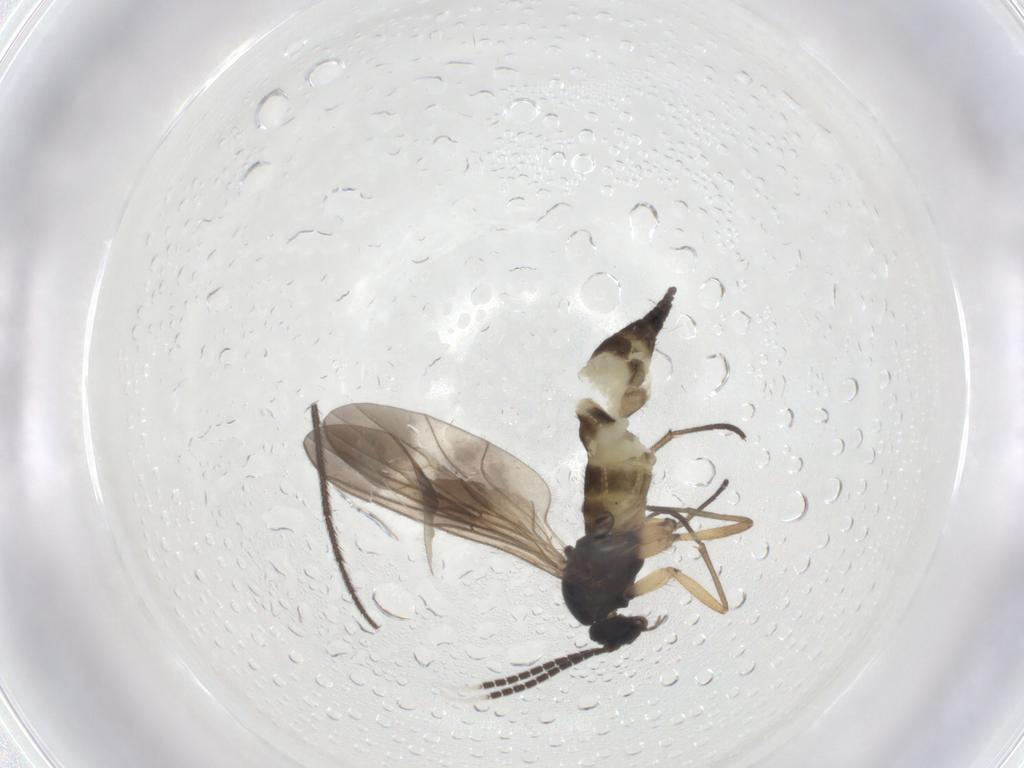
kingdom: Animalia
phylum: Arthropoda
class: Insecta
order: Diptera
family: Sciaridae
